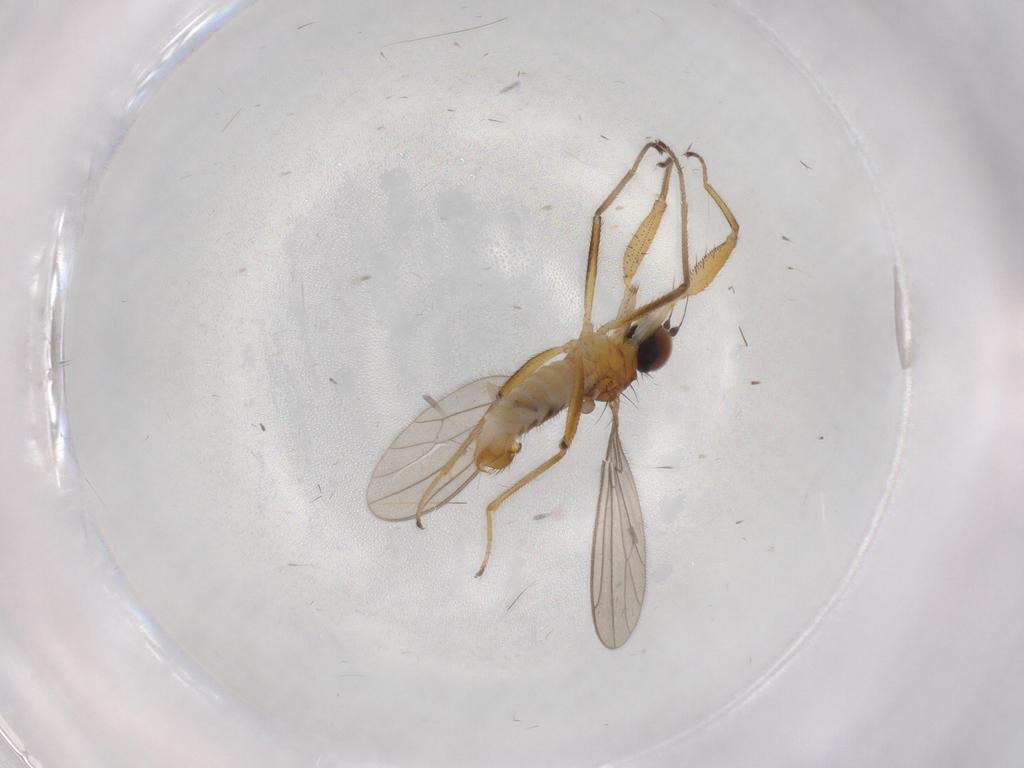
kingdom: Animalia
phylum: Arthropoda
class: Insecta
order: Diptera
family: Empididae
